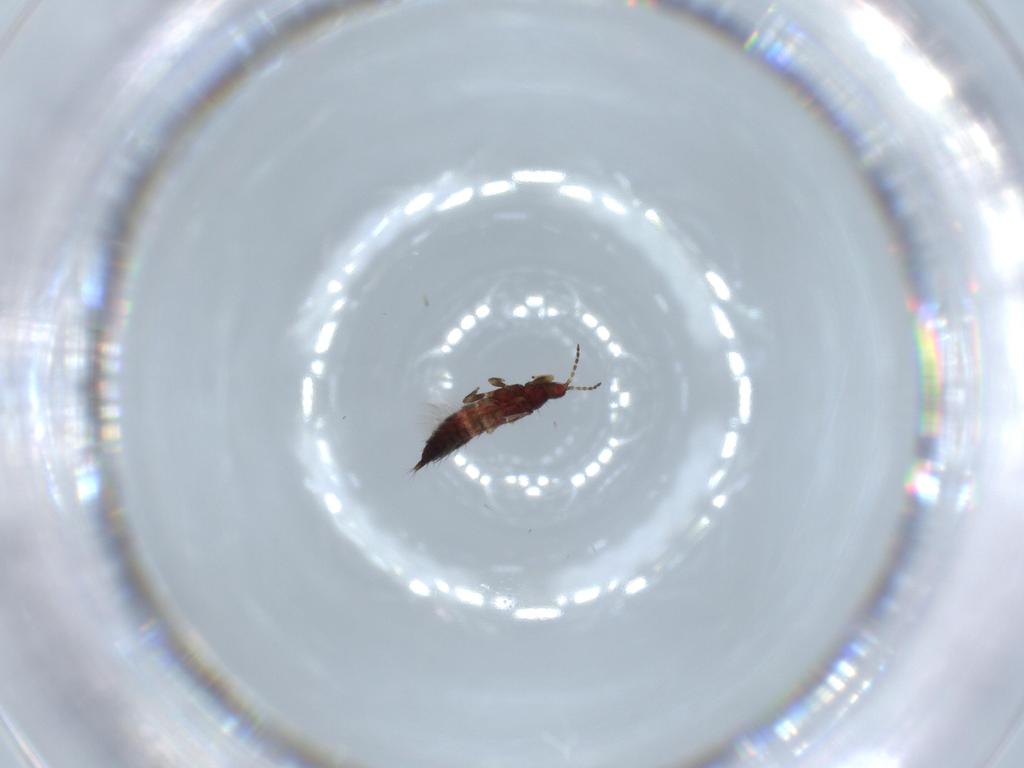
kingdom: Animalia
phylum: Arthropoda
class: Insecta
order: Thysanoptera
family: Phlaeothripidae
